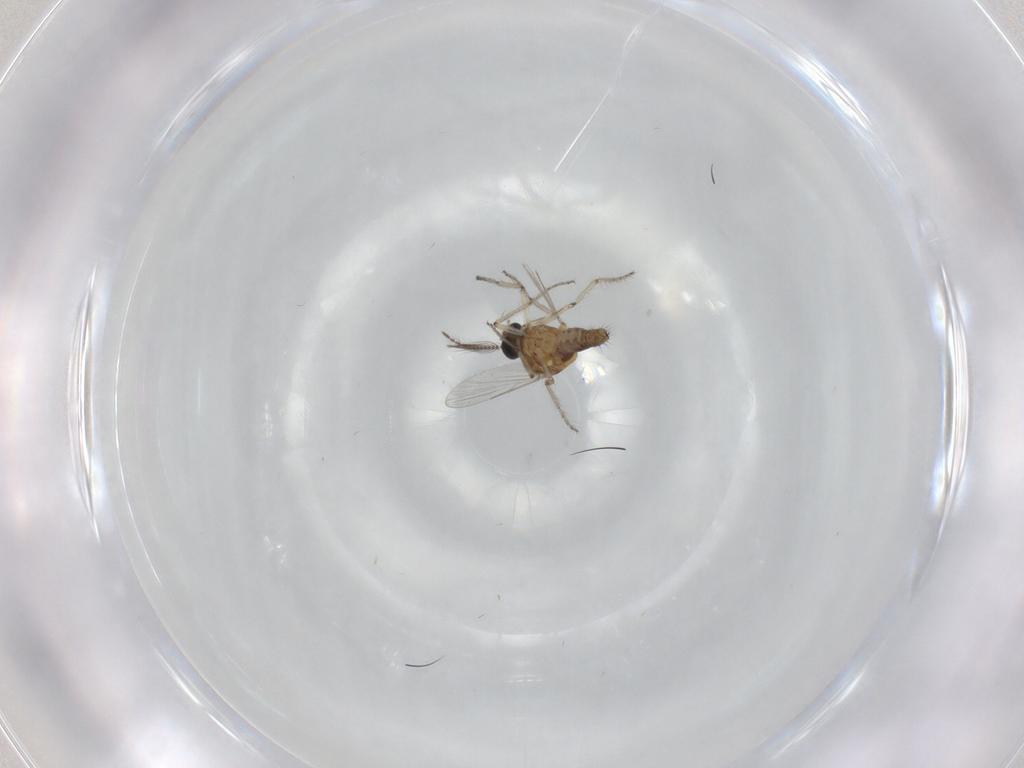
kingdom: Animalia
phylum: Arthropoda
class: Insecta
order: Diptera
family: Ceratopogonidae
